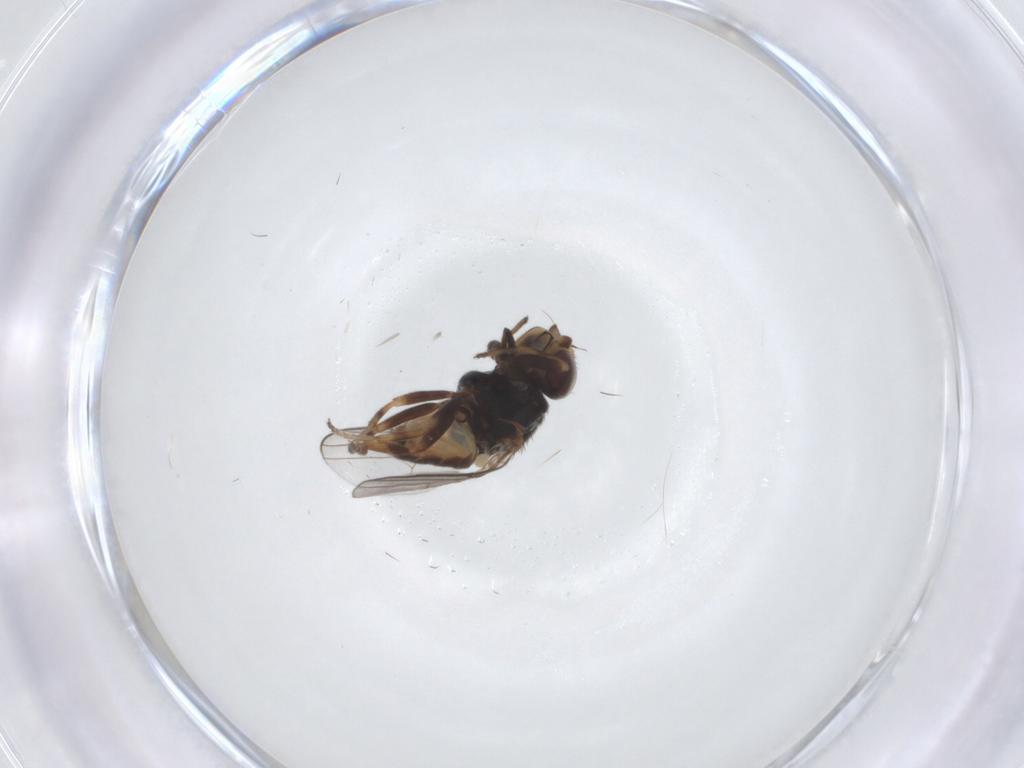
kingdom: Animalia
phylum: Arthropoda
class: Insecta
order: Diptera
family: Chloropidae
